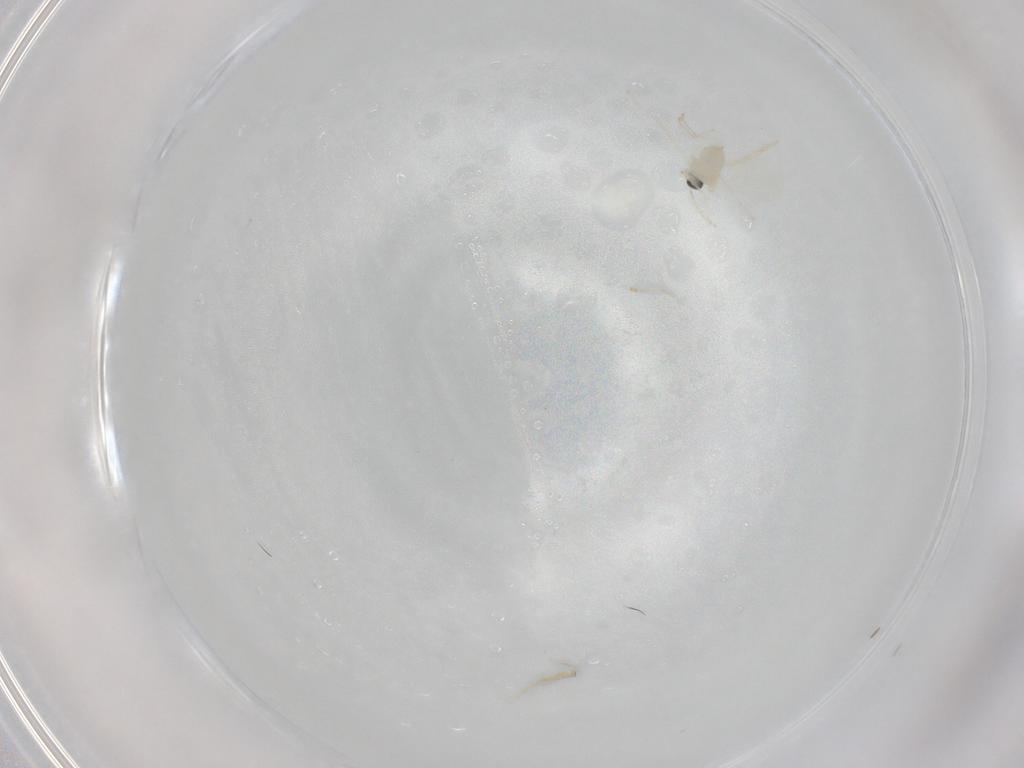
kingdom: Animalia
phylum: Arthropoda
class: Insecta
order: Diptera
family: Cecidomyiidae
